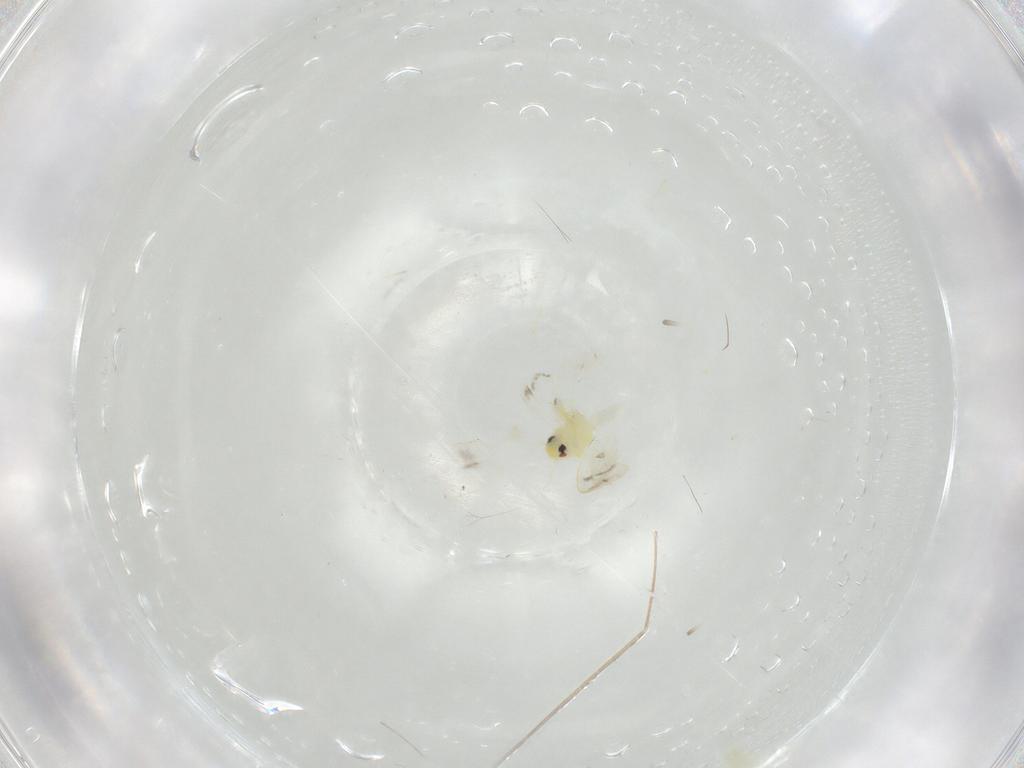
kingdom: Animalia
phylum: Arthropoda
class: Insecta
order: Hemiptera
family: Aleyrodidae
